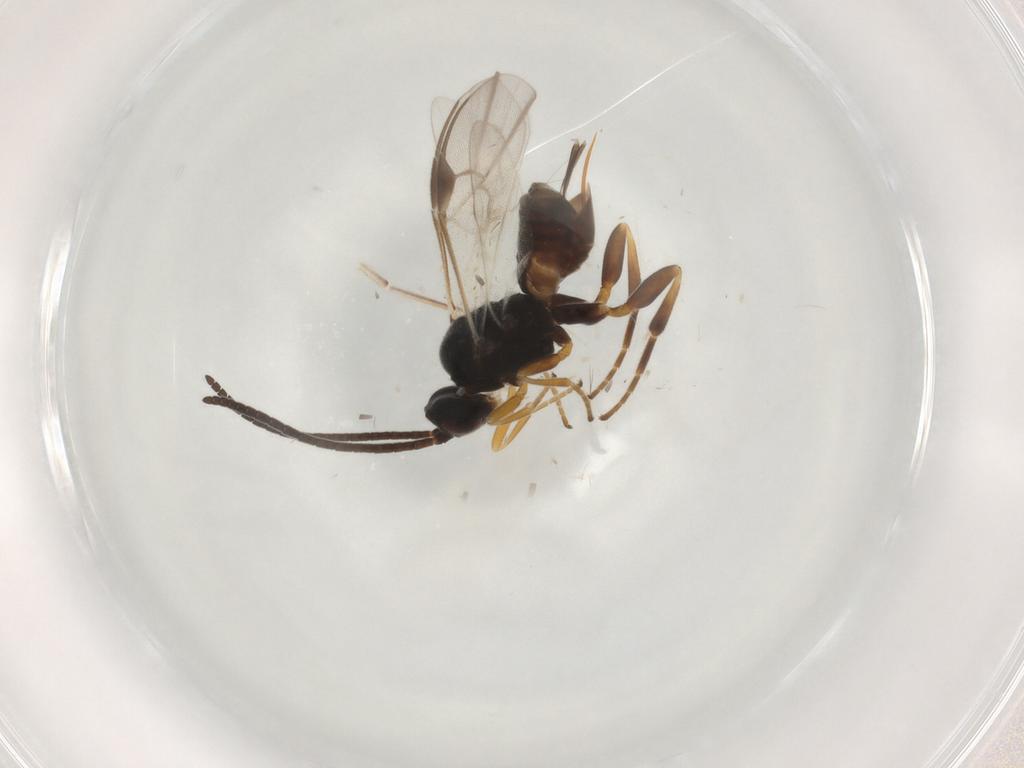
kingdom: Animalia
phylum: Arthropoda
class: Insecta
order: Hymenoptera
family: Braconidae
